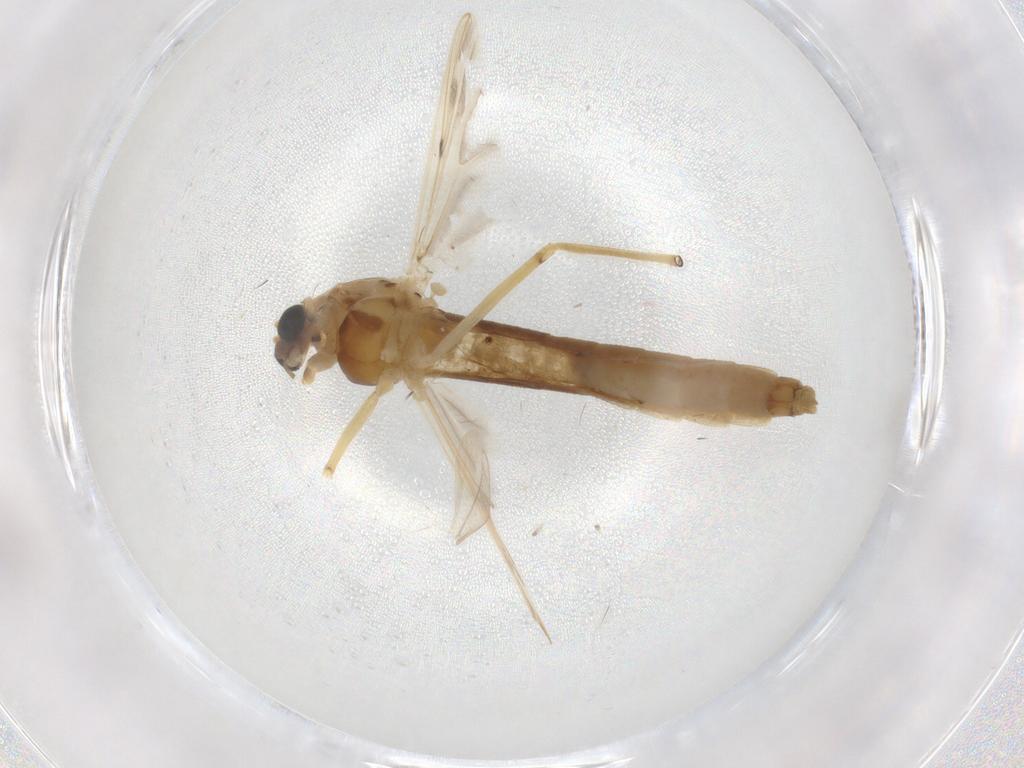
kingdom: Animalia
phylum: Arthropoda
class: Insecta
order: Diptera
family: Chironomidae
